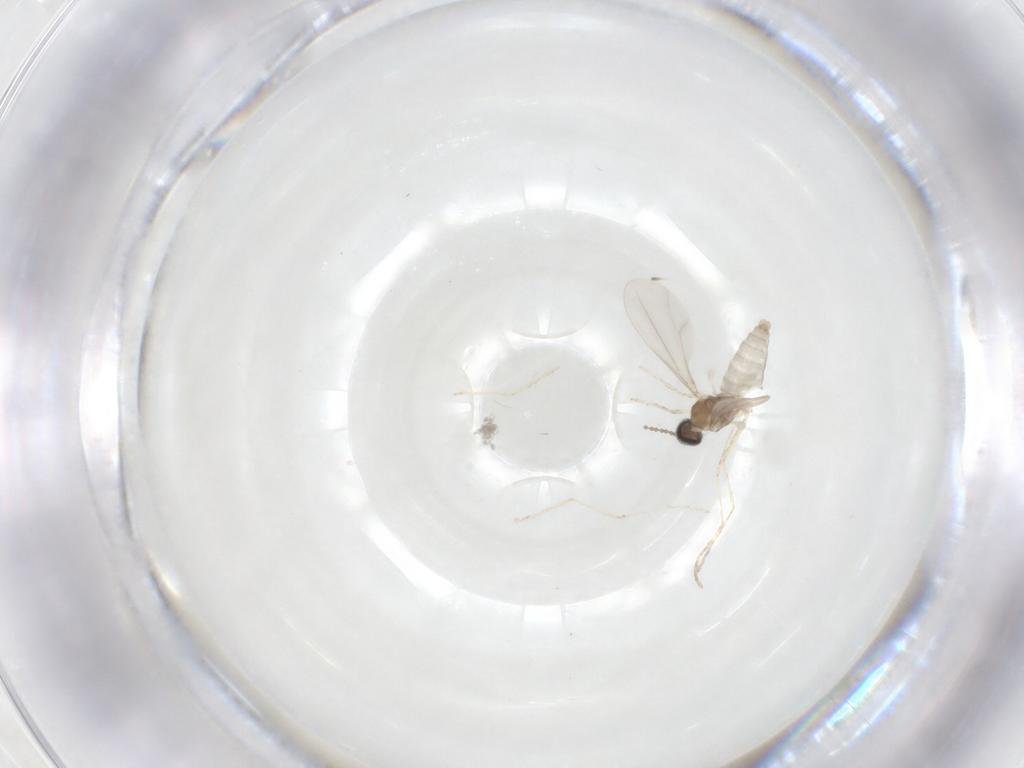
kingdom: Animalia
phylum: Arthropoda
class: Insecta
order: Diptera
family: Cecidomyiidae
